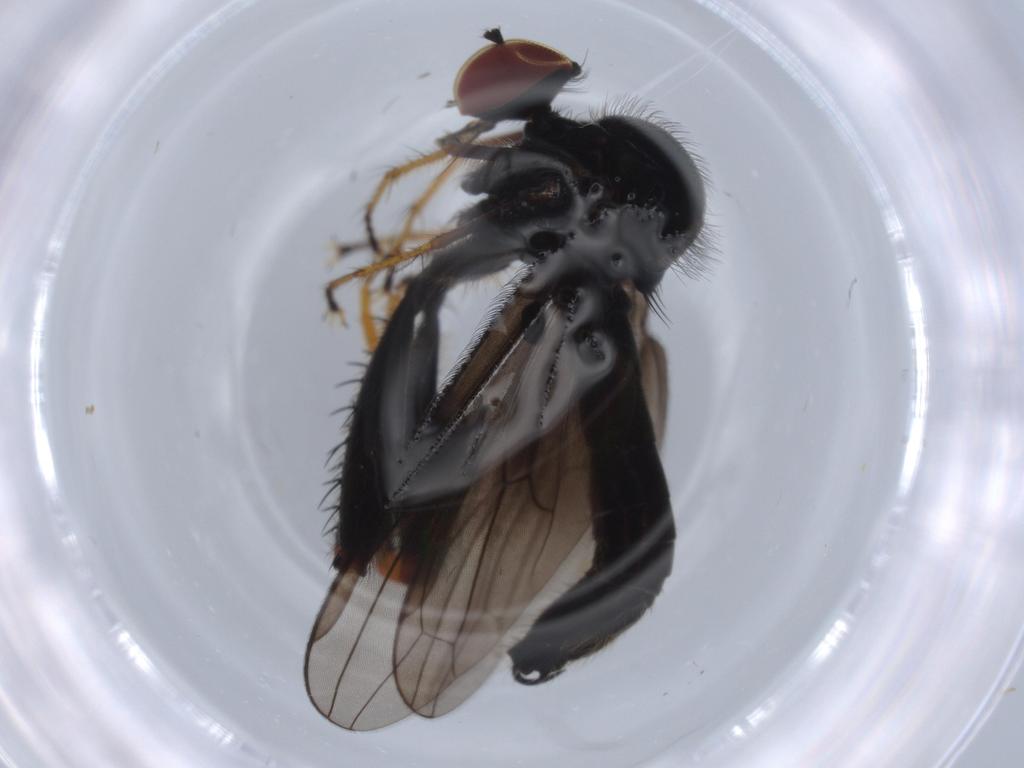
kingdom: Animalia
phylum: Arthropoda
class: Insecta
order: Diptera
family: Hybotidae
